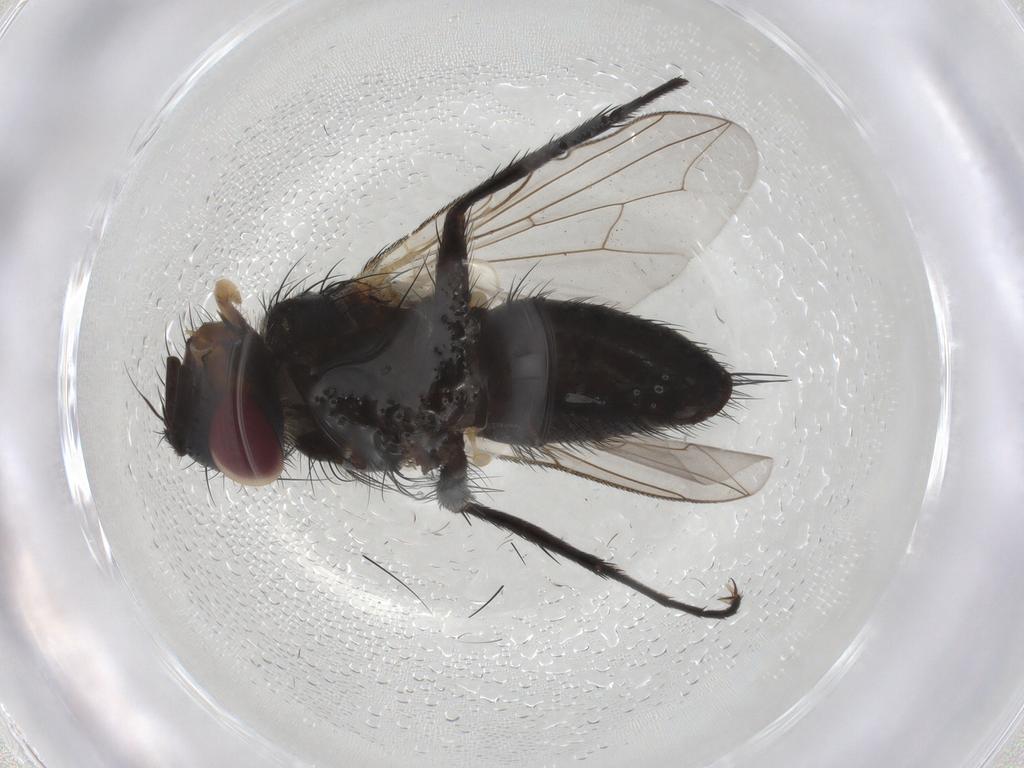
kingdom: Animalia
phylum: Arthropoda
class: Insecta
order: Diptera
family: Tachinidae
